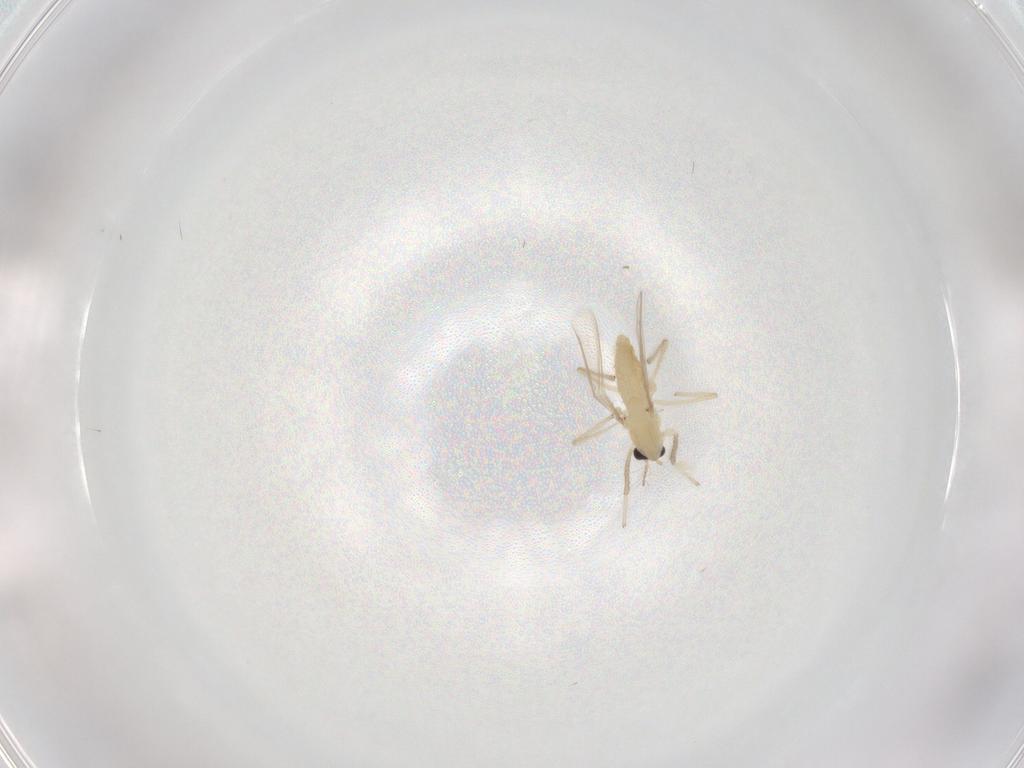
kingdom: Animalia
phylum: Arthropoda
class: Insecta
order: Diptera
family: Chironomidae
